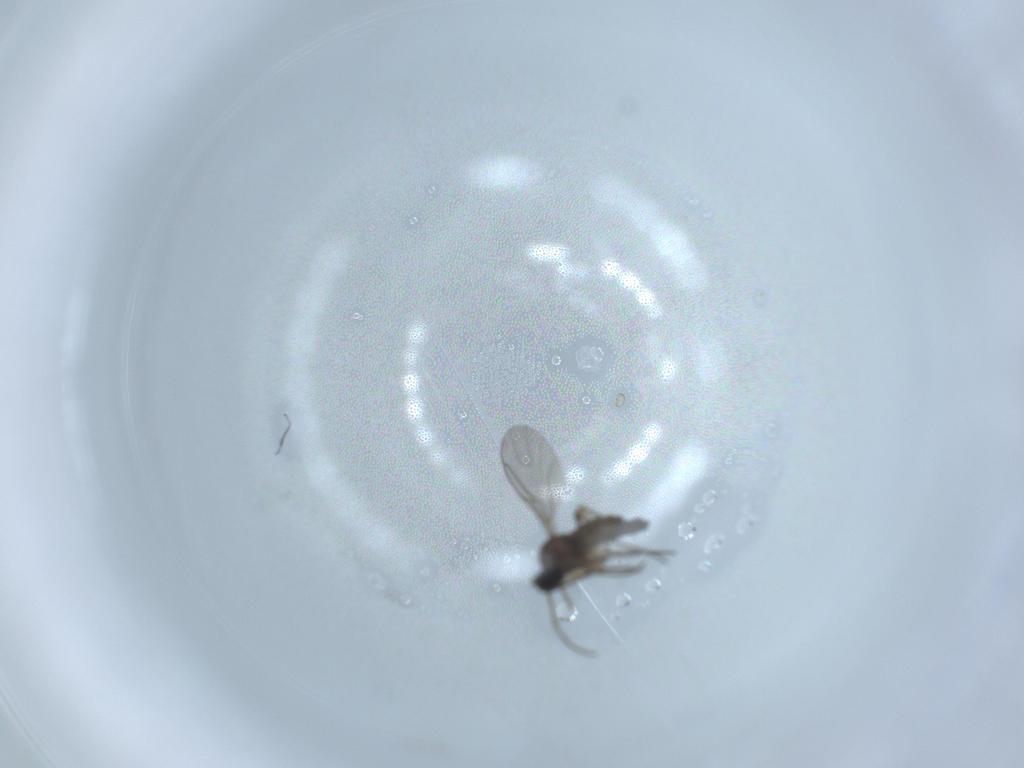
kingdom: Animalia
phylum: Arthropoda
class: Insecta
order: Diptera
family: Sciaridae
